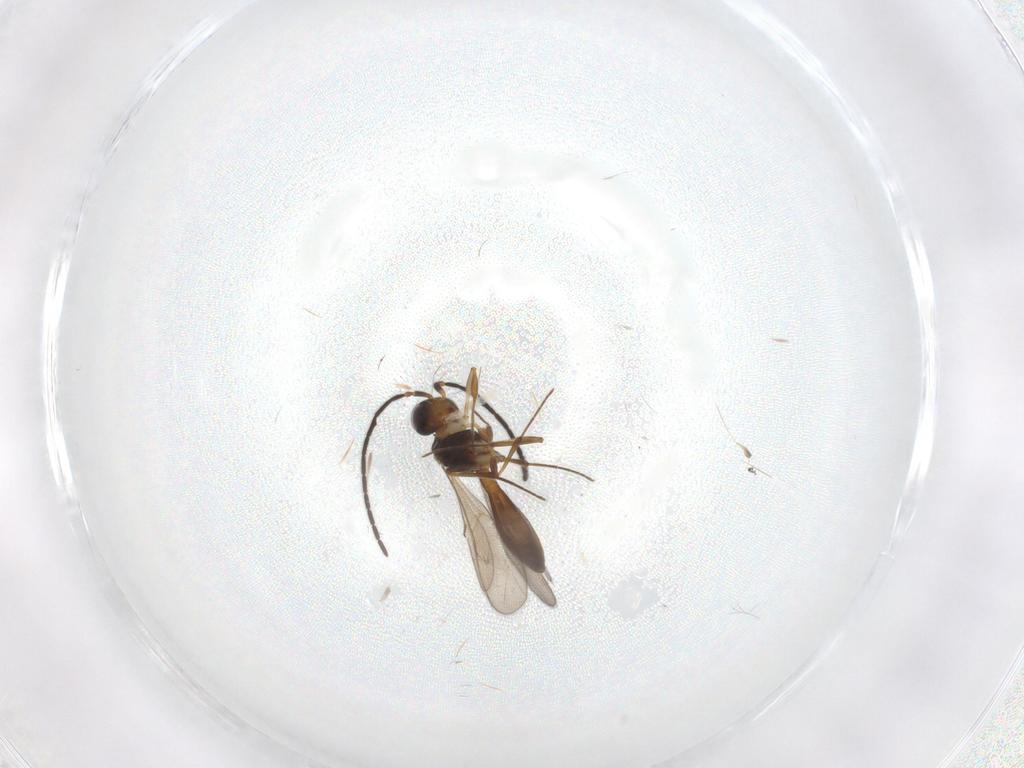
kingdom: Animalia
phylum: Arthropoda
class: Insecta
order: Hymenoptera
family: Scelionidae
